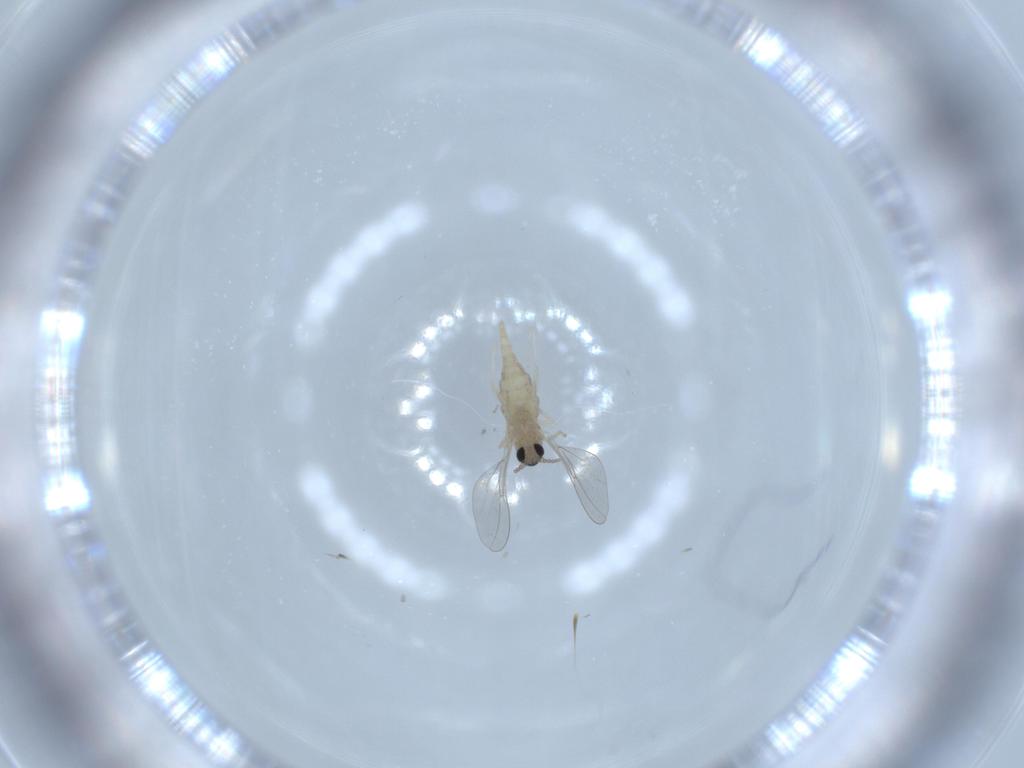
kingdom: Animalia
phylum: Arthropoda
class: Insecta
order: Diptera
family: Cecidomyiidae
